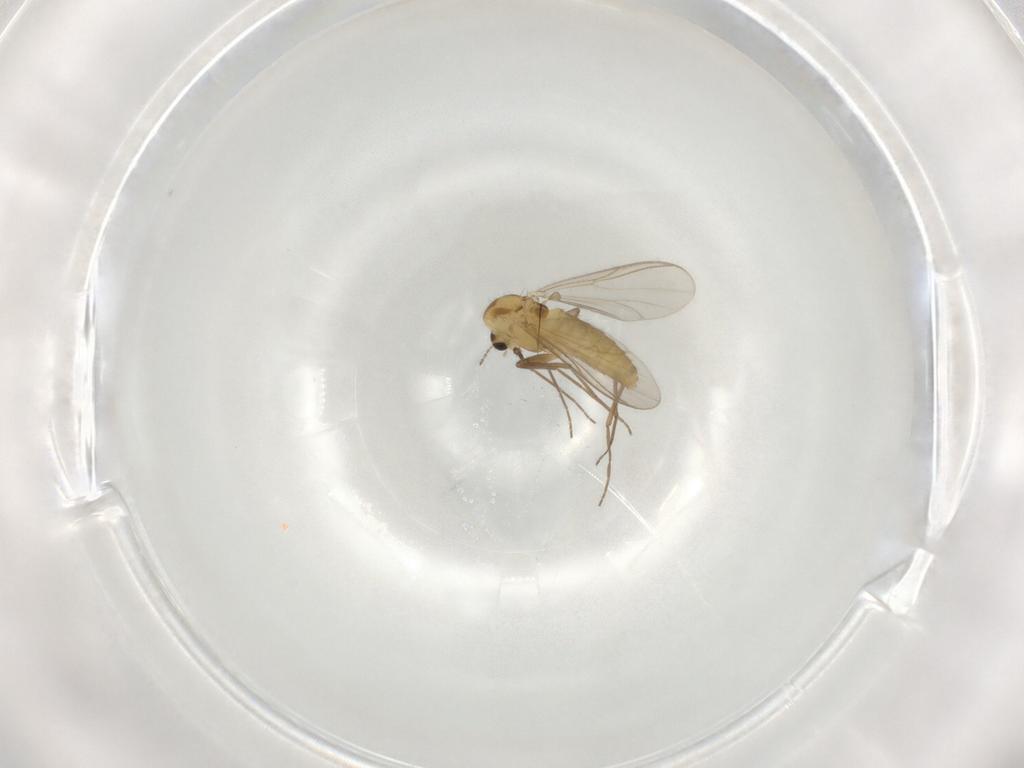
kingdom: Animalia
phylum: Arthropoda
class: Insecta
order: Diptera
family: Chironomidae
